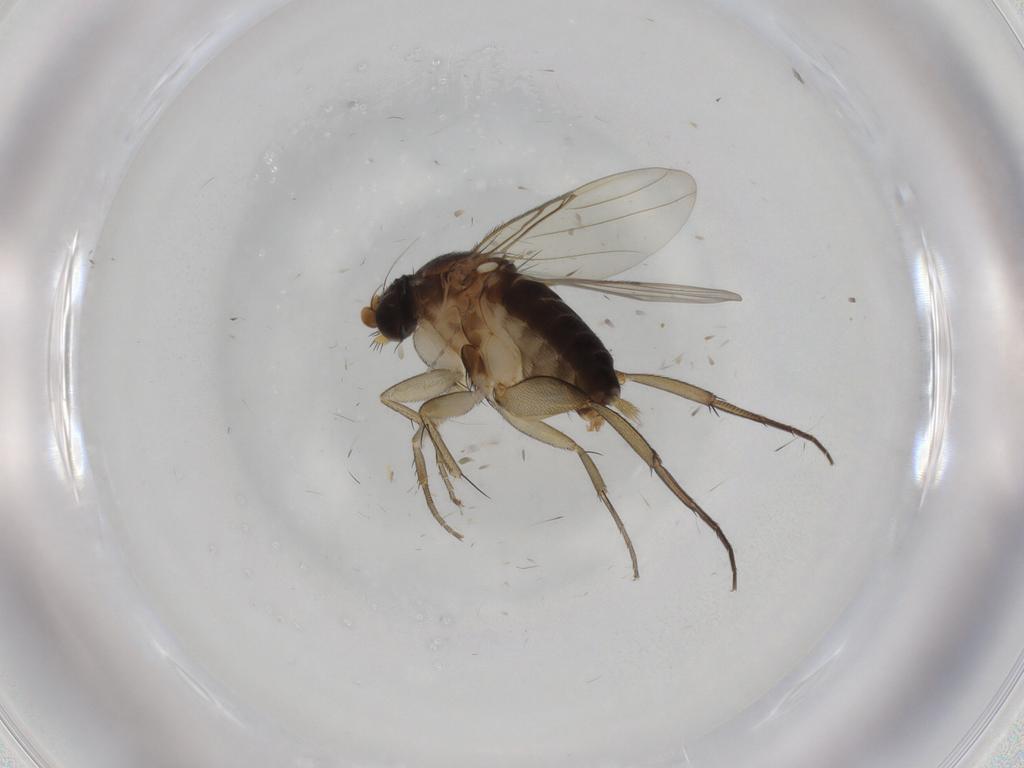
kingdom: Animalia
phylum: Arthropoda
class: Insecta
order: Diptera
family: Phoridae
